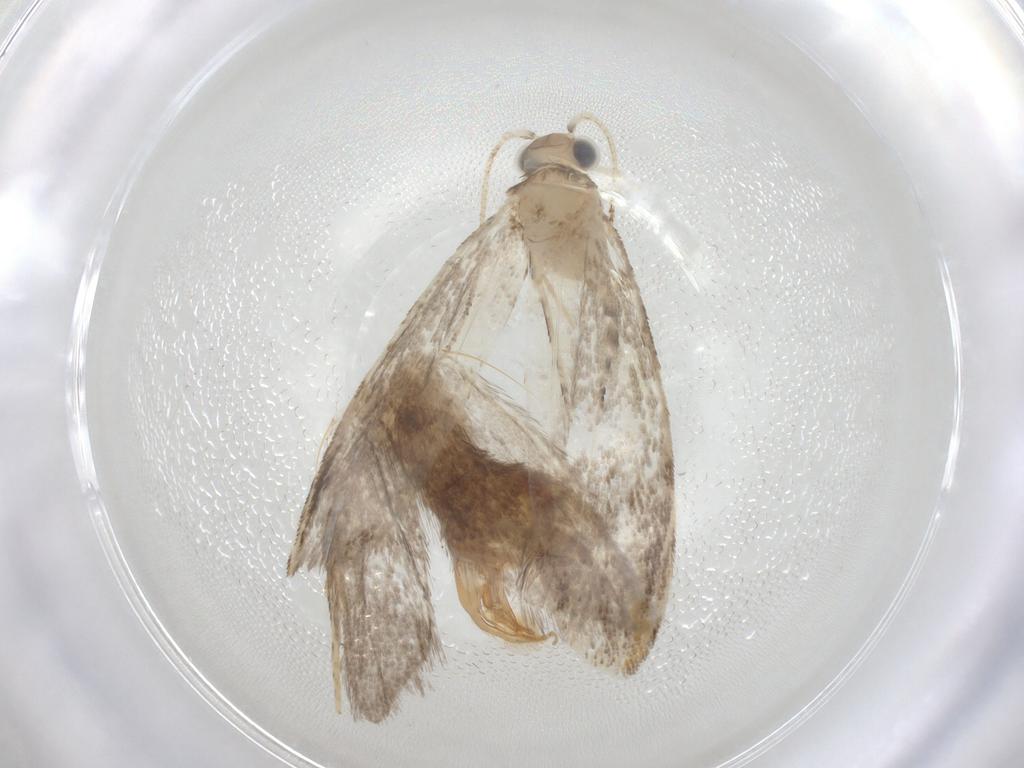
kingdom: Animalia
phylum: Arthropoda
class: Insecta
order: Lepidoptera
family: Tineidae
